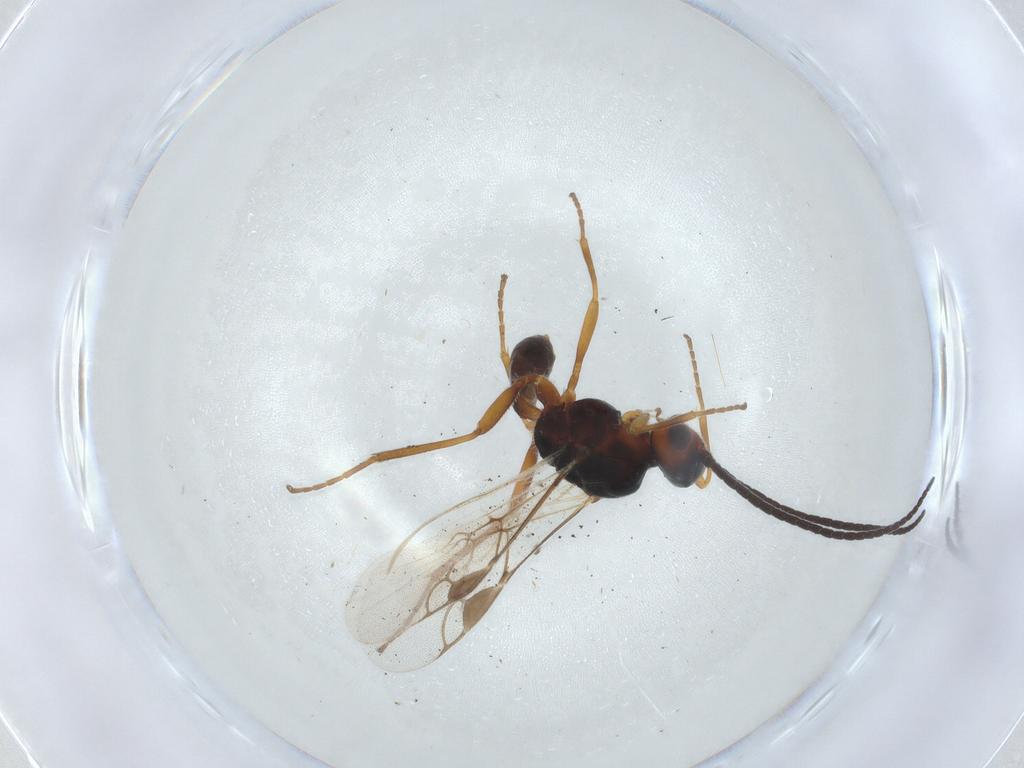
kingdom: Animalia
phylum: Arthropoda
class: Insecta
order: Hymenoptera
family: Braconidae
